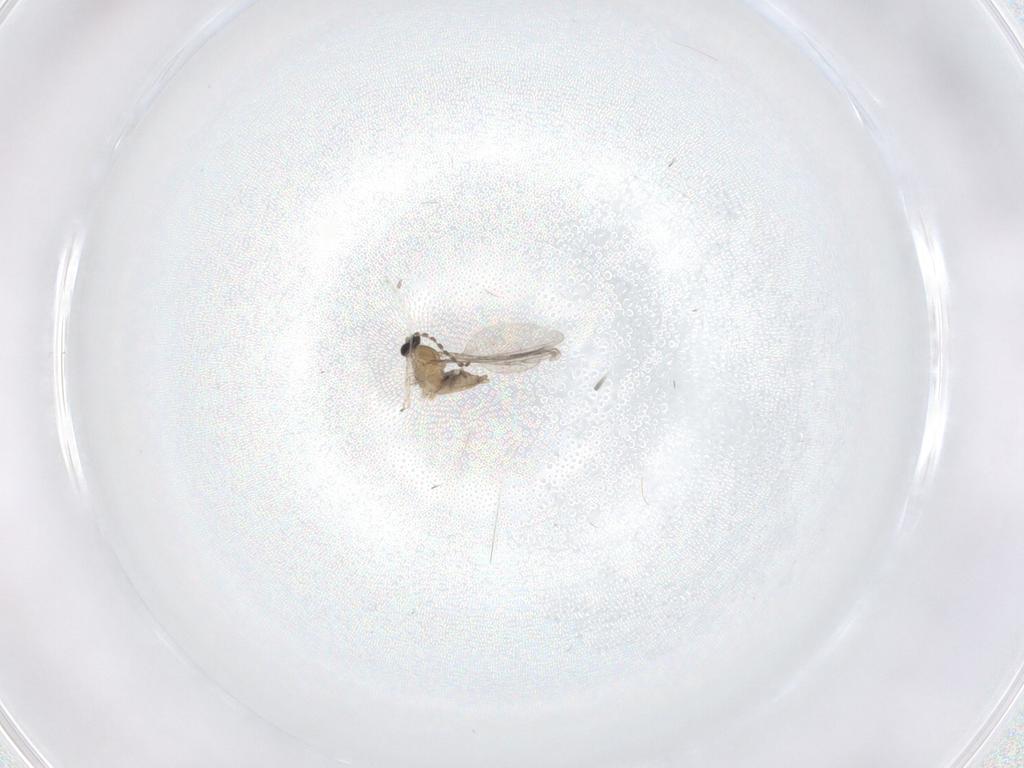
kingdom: Animalia
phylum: Arthropoda
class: Insecta
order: Diptera
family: Cecidomyiidae
